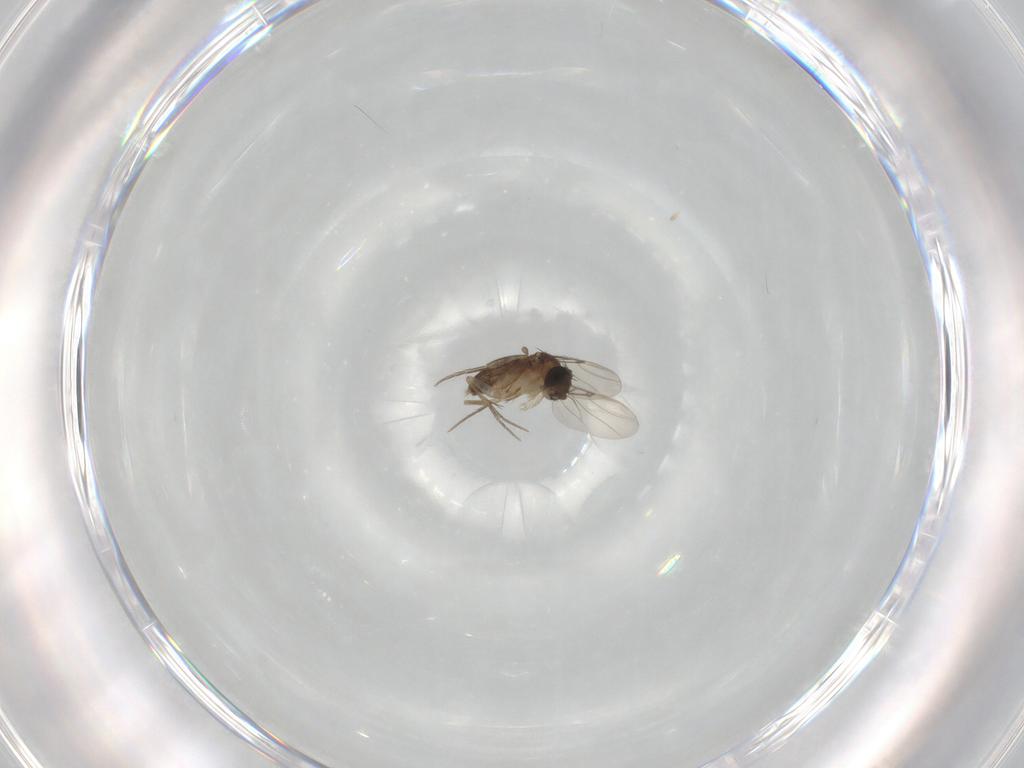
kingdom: Animalia
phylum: Arthropoda
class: Insecta
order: Diptera
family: Phoridae
